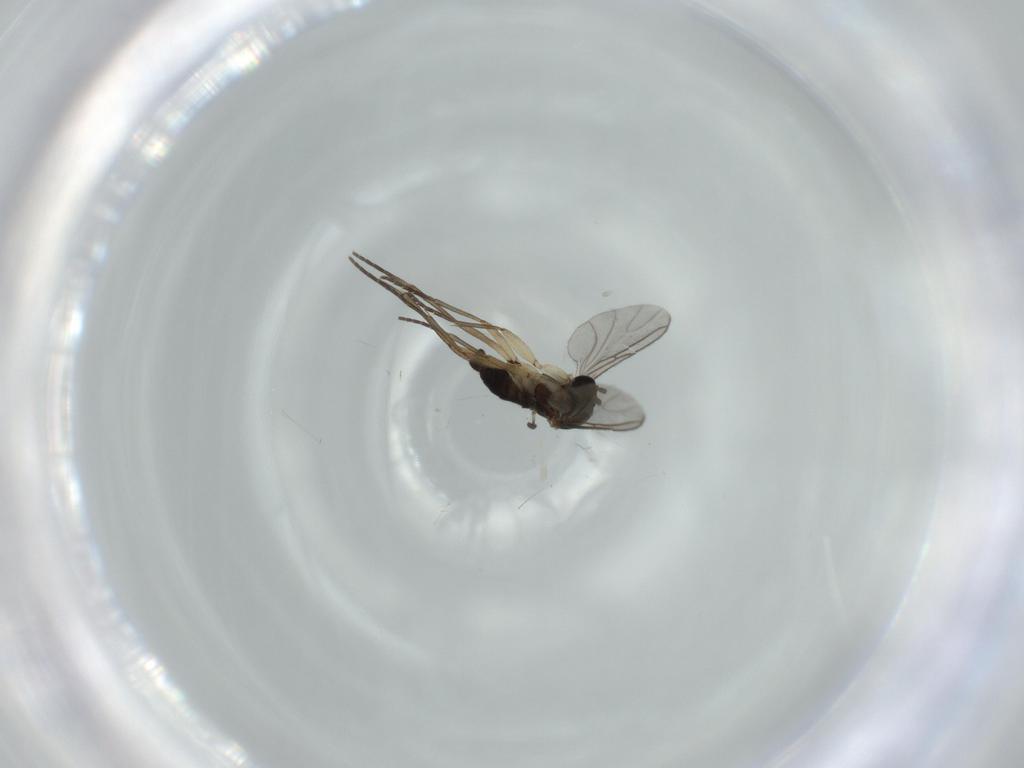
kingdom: Animalia
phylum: Arthropoda
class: Insecta
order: Diptera
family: Sciaridae
